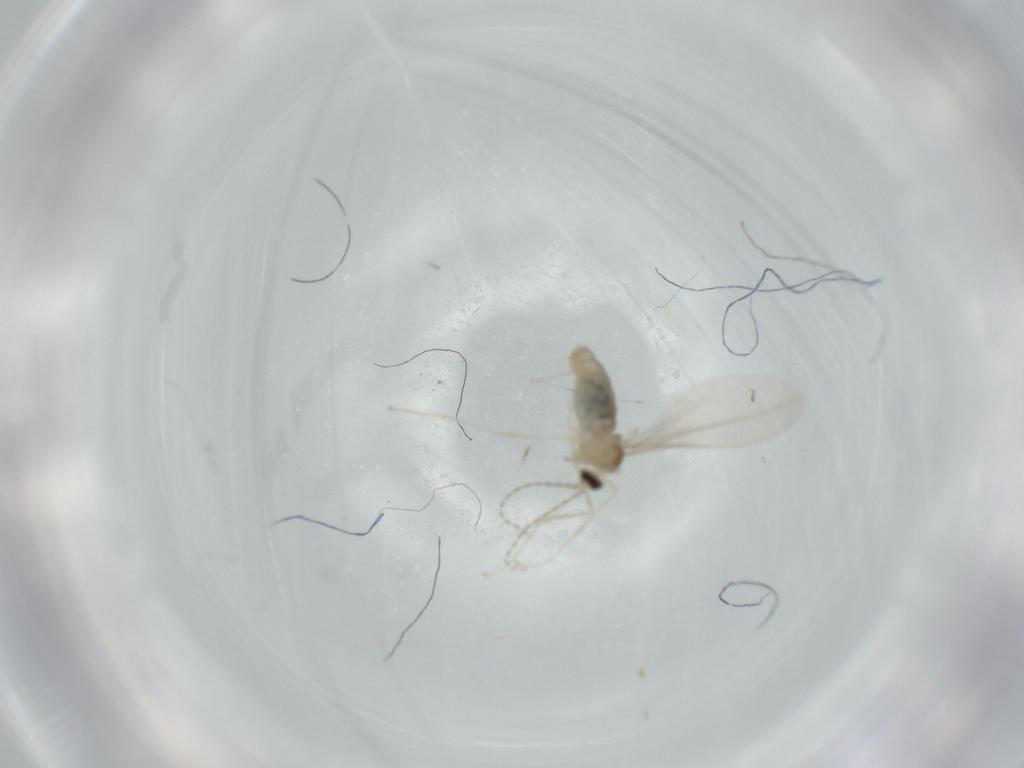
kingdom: Animalia
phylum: Arthropoda
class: Insecta
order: Diptera
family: Cecidomyiidae
